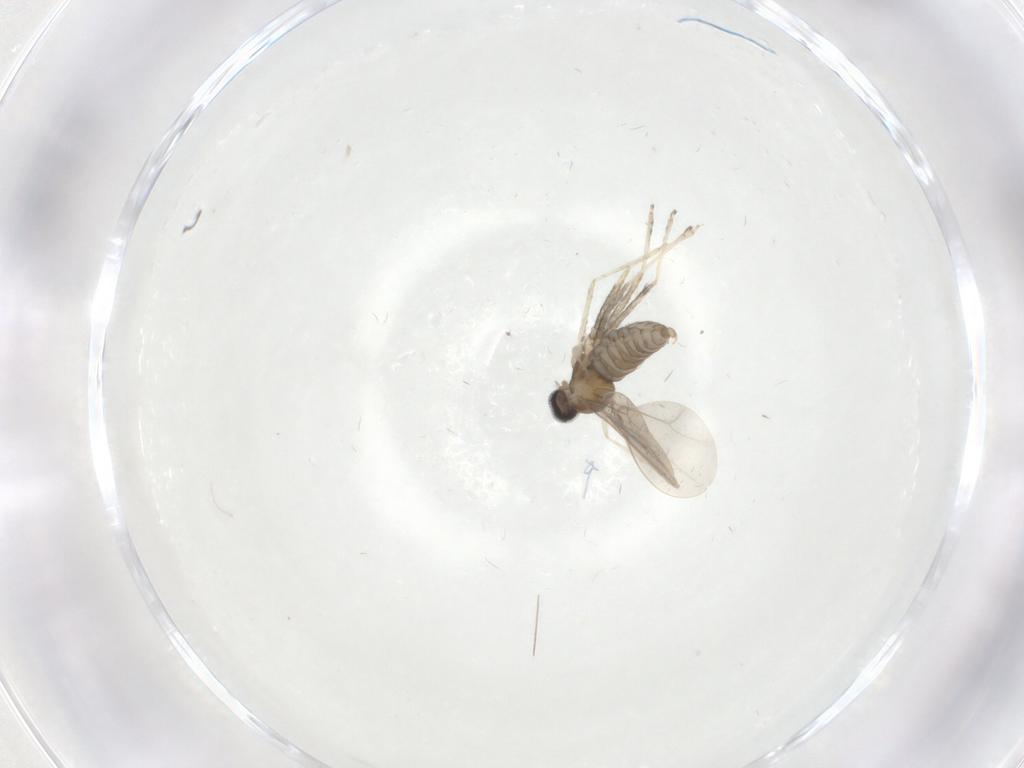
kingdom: Animalia
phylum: Arthropoda
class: Insecta
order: Diptera
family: Cecidomyiidae
